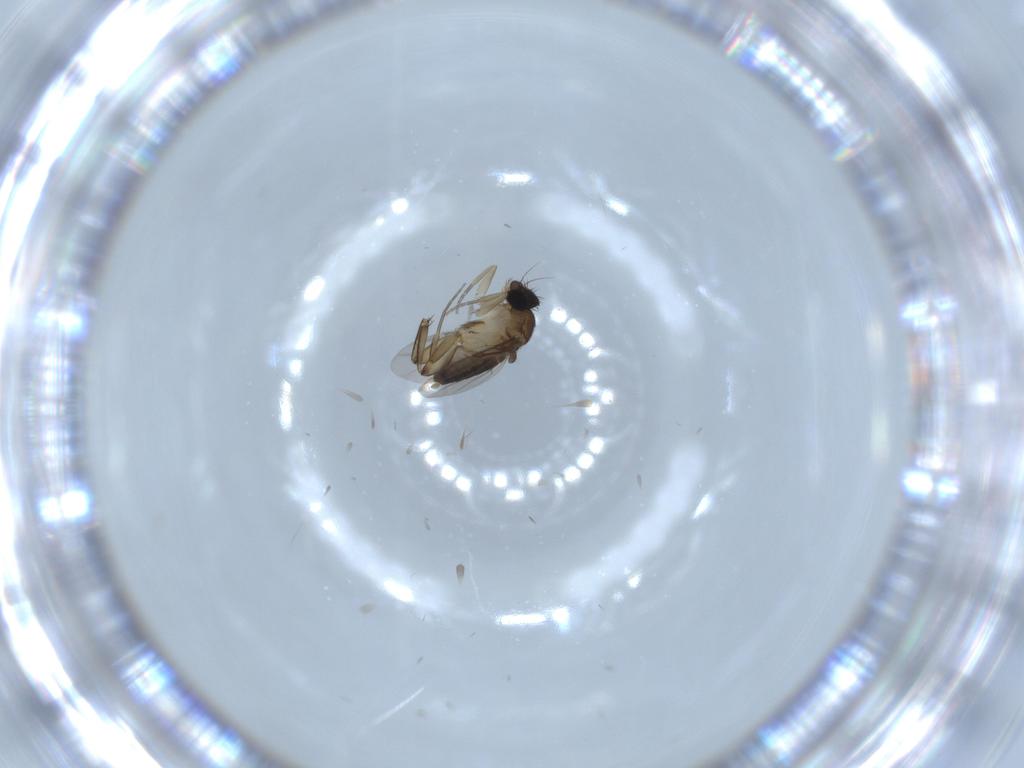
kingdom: Animalia
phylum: Arthropoda
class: Insecta
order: Diptera
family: Phoridae
